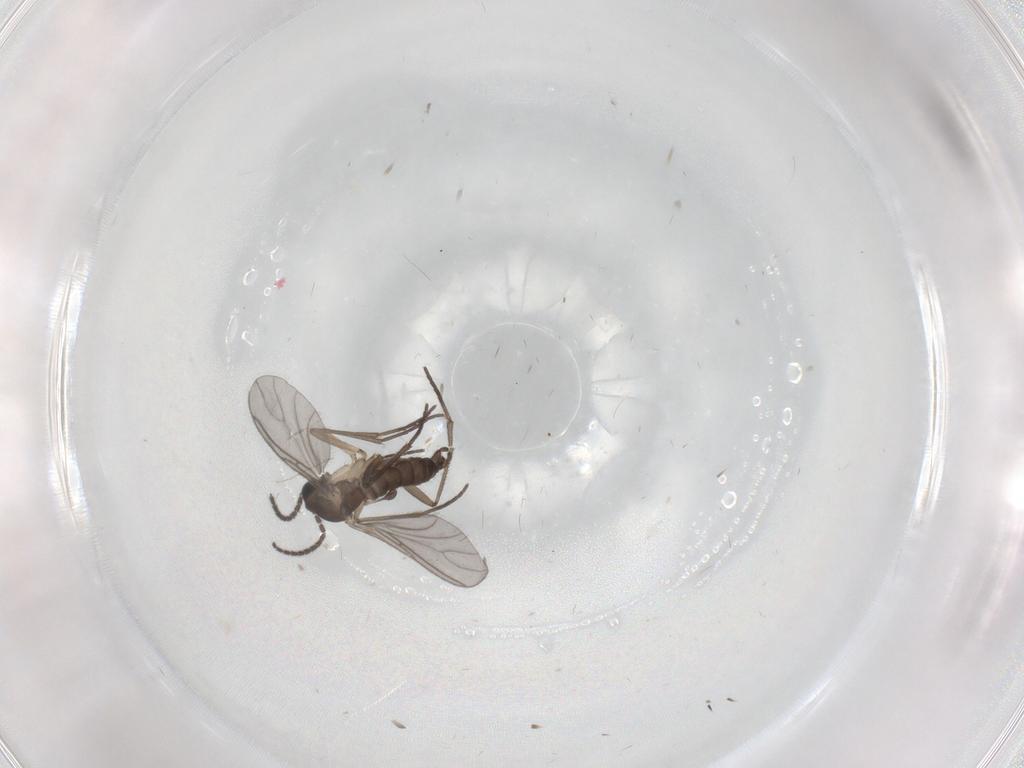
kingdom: Animalia
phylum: Arthropoda
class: Insecta
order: Diptera
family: Sciaridae
